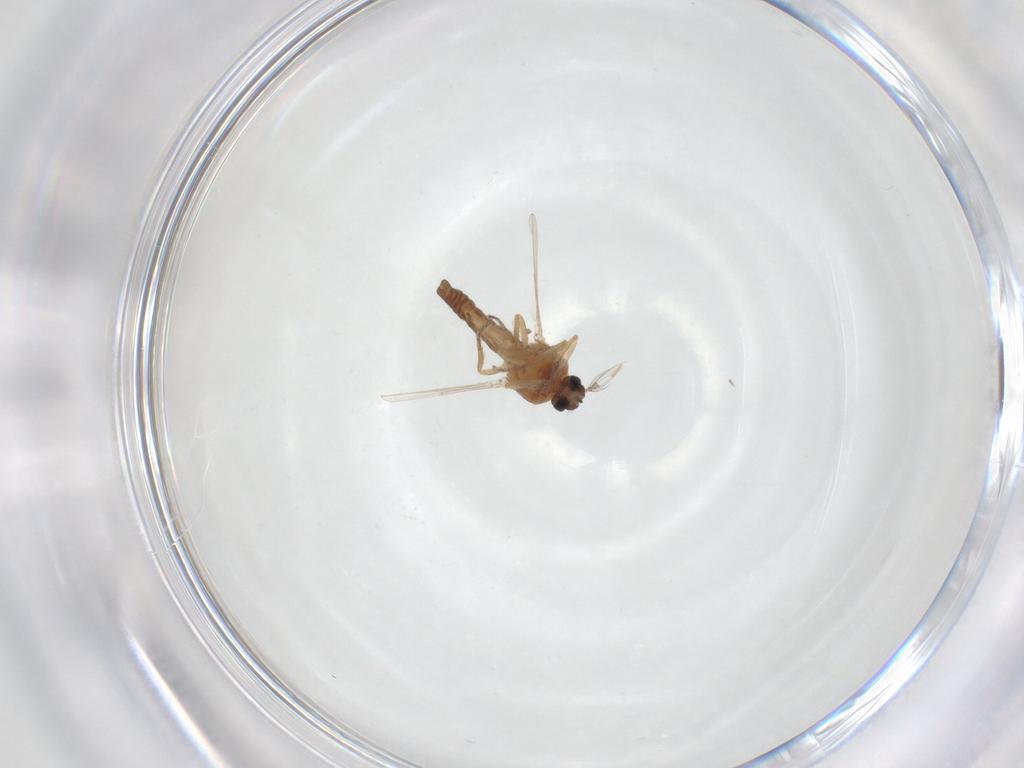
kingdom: Animalia
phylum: Arthropoda
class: Insecta
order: Diptera
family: Ceratopogonidae
